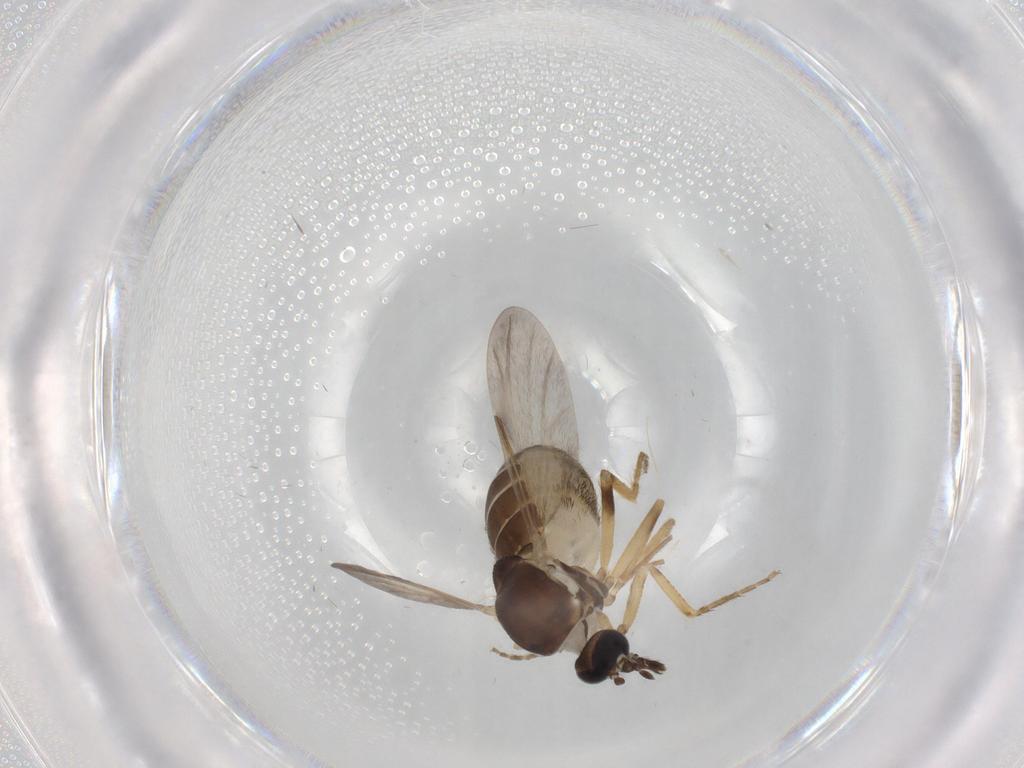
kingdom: Animalia
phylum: Arthropoda
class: Insecta
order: Diptera
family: Ceratopogonidae
